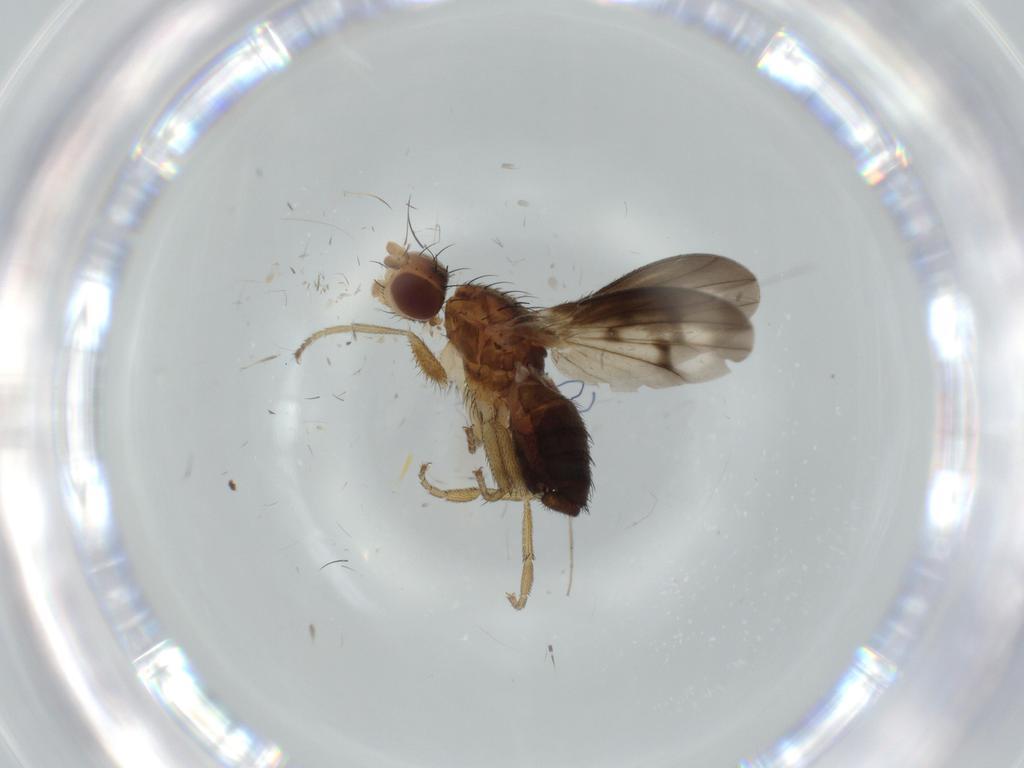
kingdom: Animalia
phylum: Arthropoda
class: Insecta
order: Diptera
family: Heleomyzidae
